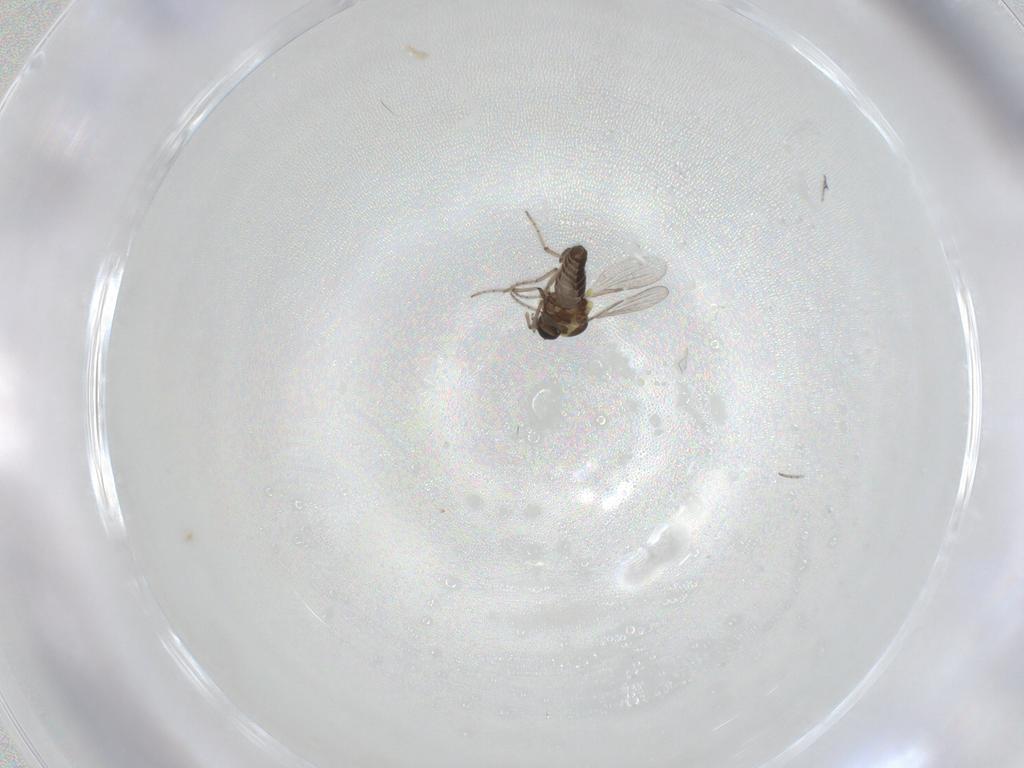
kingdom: Animalia
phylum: Arthropoda
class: Insecta
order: Diptera
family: Ceratopogonidae
